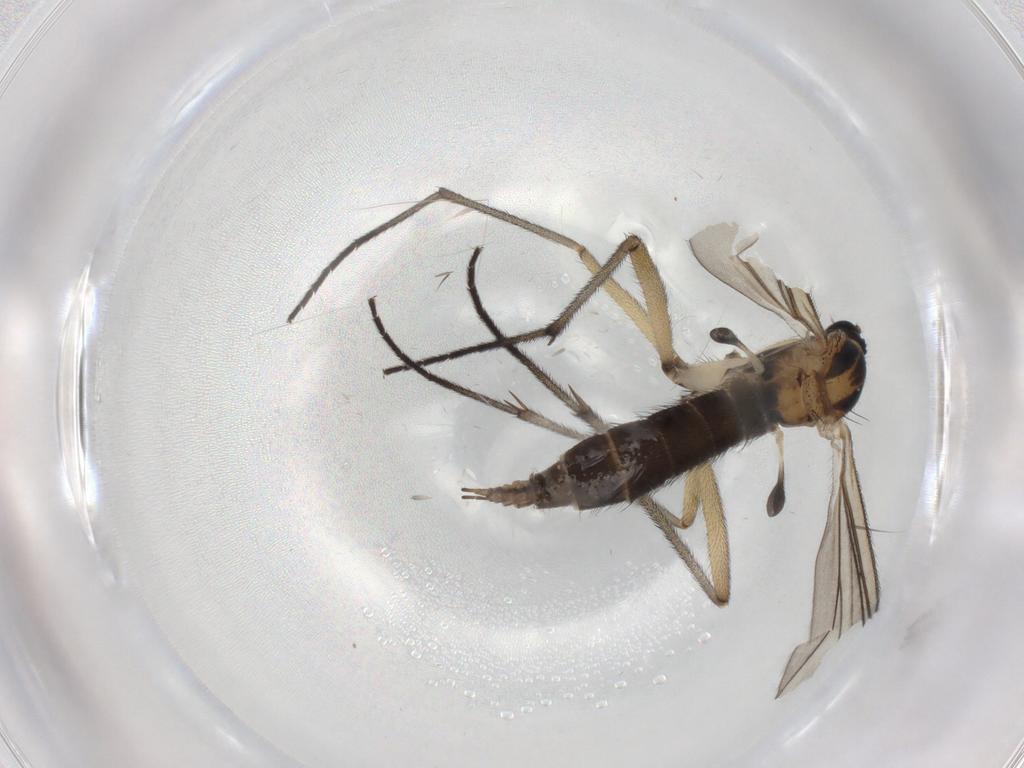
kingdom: Animalia
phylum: Arthropoda
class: Insecta
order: Diptera
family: Sciaridae
